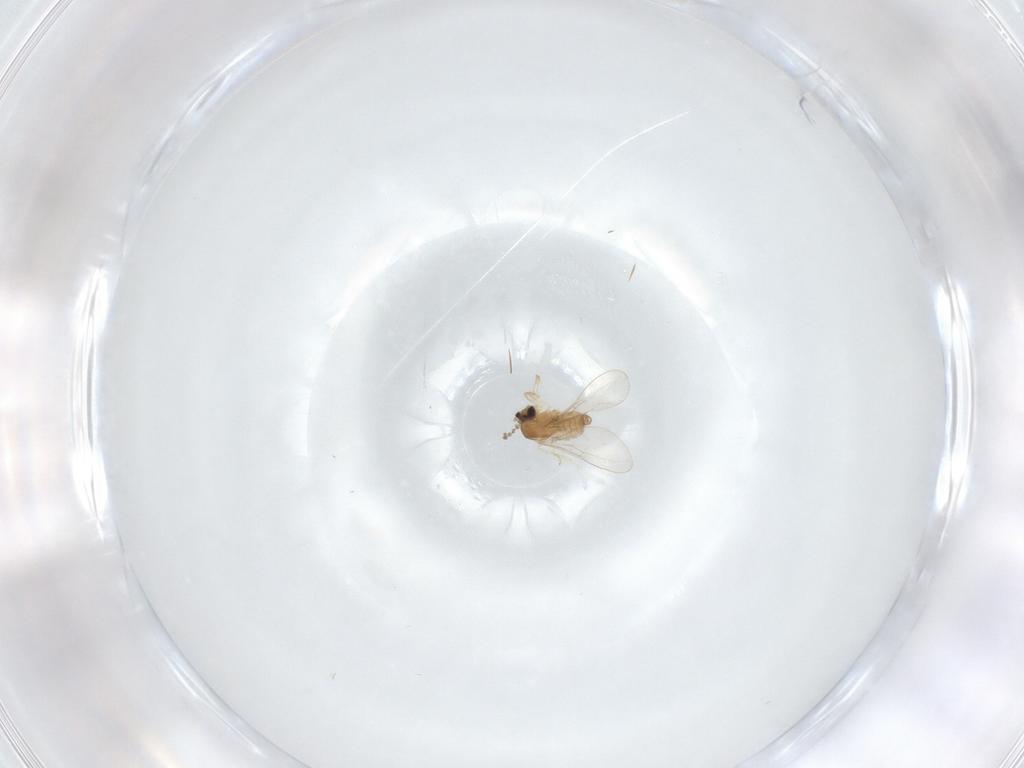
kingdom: Animalia
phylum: Arthropoda
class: Insecta
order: Diptera
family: Cecidomyiidae
